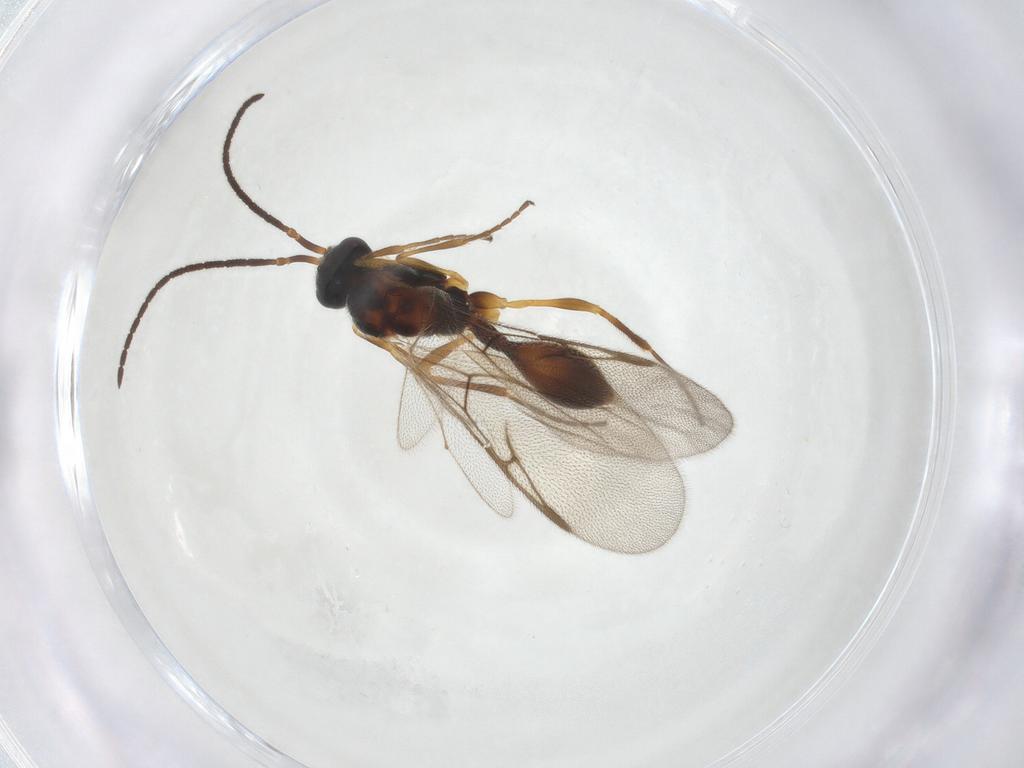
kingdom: Animalia
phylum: Arthropoda
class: Insecta
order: Hymenoptera
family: Diapriidae
